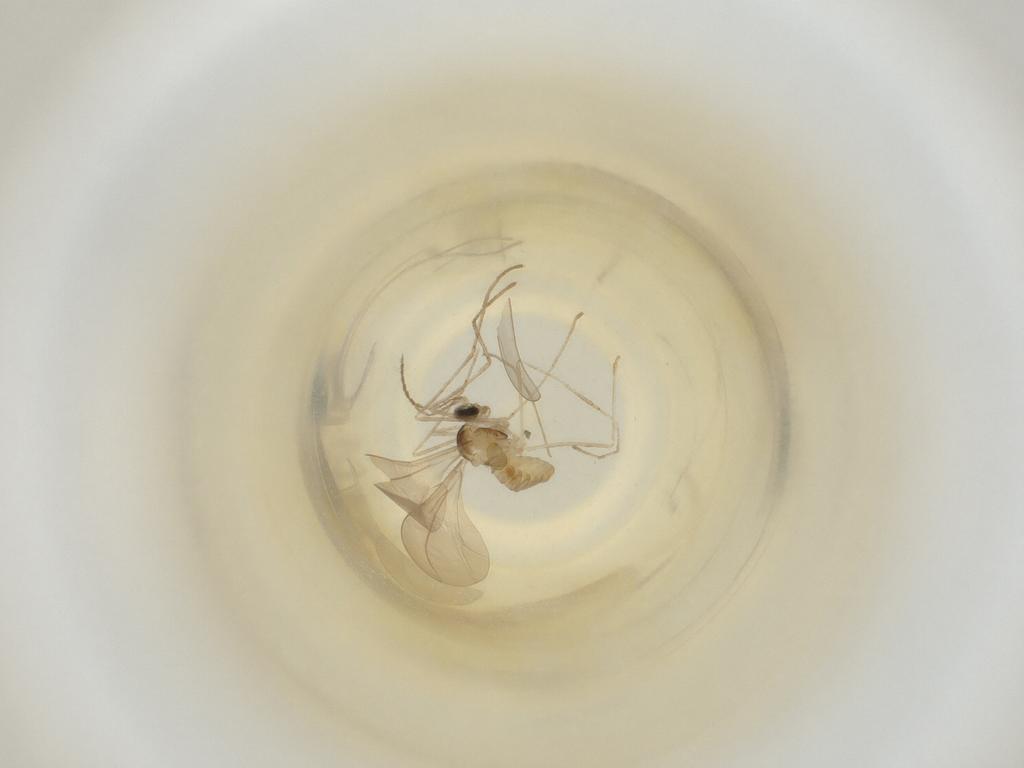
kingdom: Animalia
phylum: Arthropoda
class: Insecta
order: Diptera
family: Cecidomyiidae
